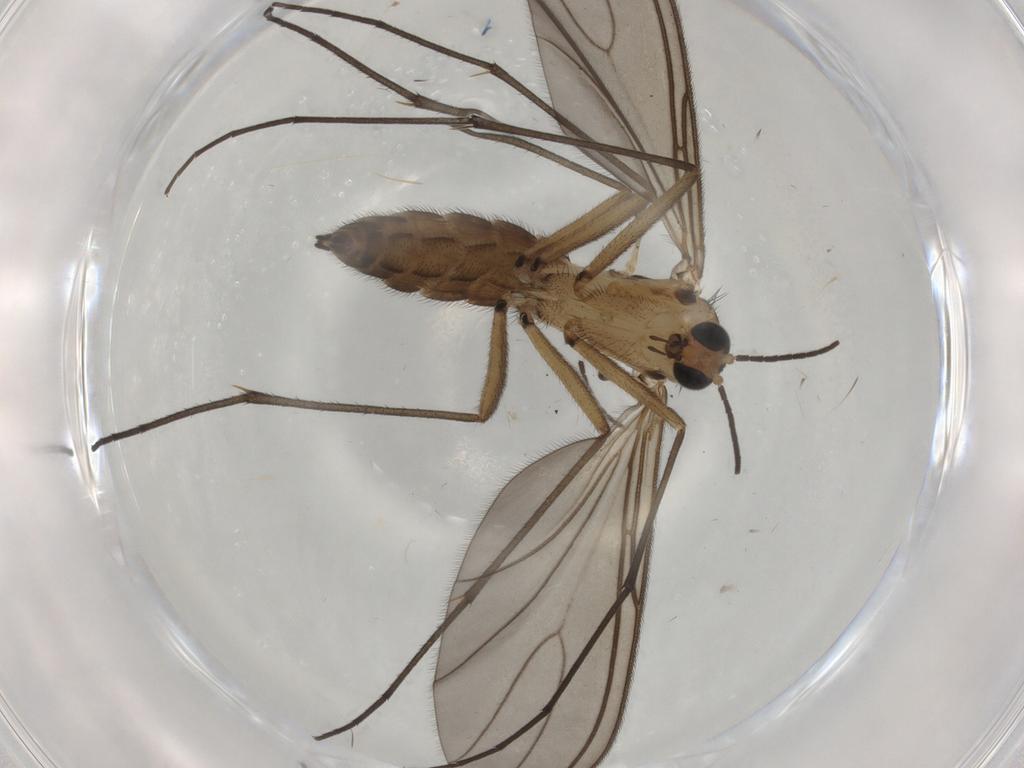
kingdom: Animalia
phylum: Arthropoda
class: Insecta
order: Diptera
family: Sciaridae
